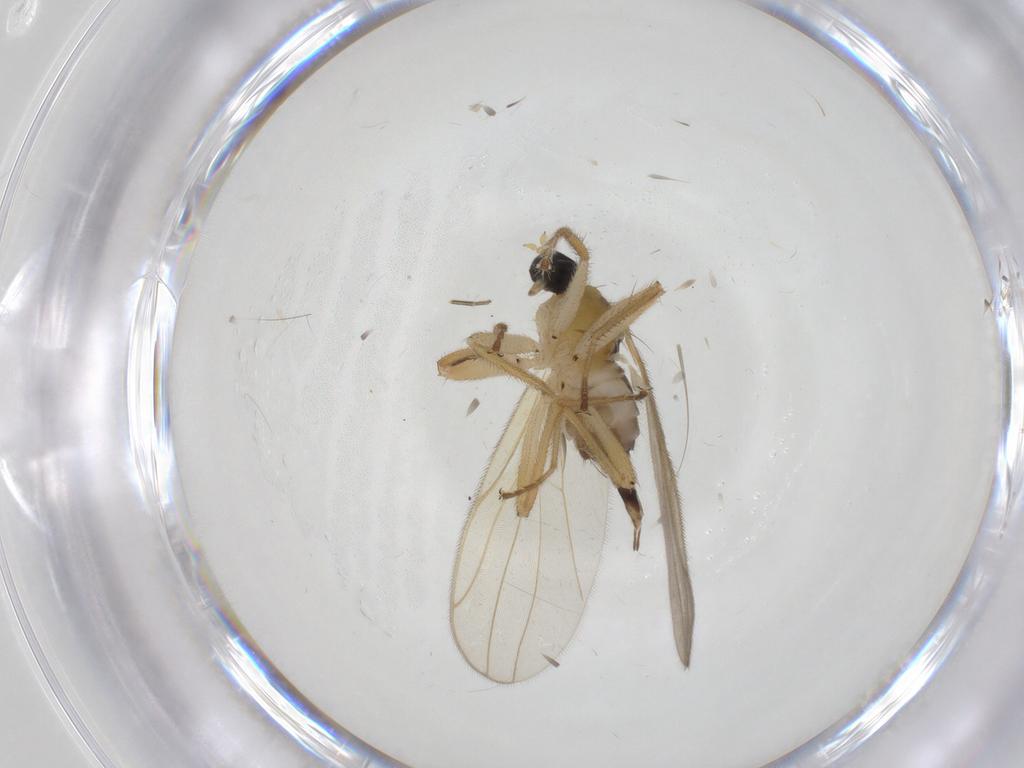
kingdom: Animalia
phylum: Arthropoda
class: Insecta
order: Diptera
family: Hybotidae
